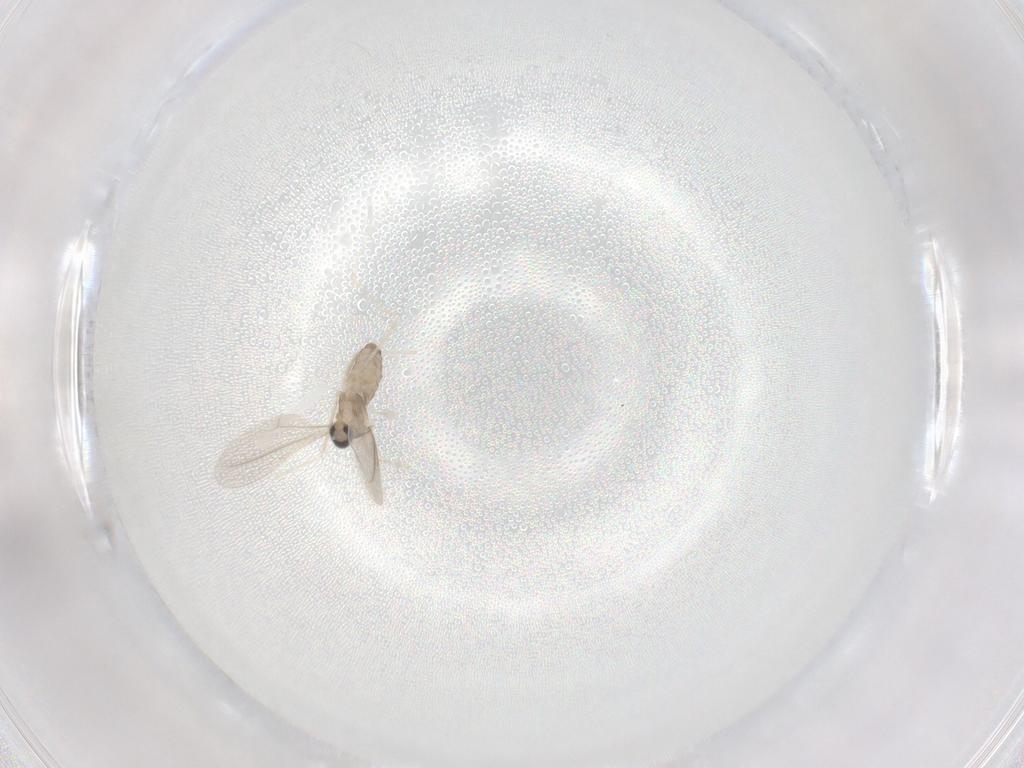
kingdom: Animalia
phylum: Arthropoda
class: Insecta
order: Diptera
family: Cecidomyiidae
